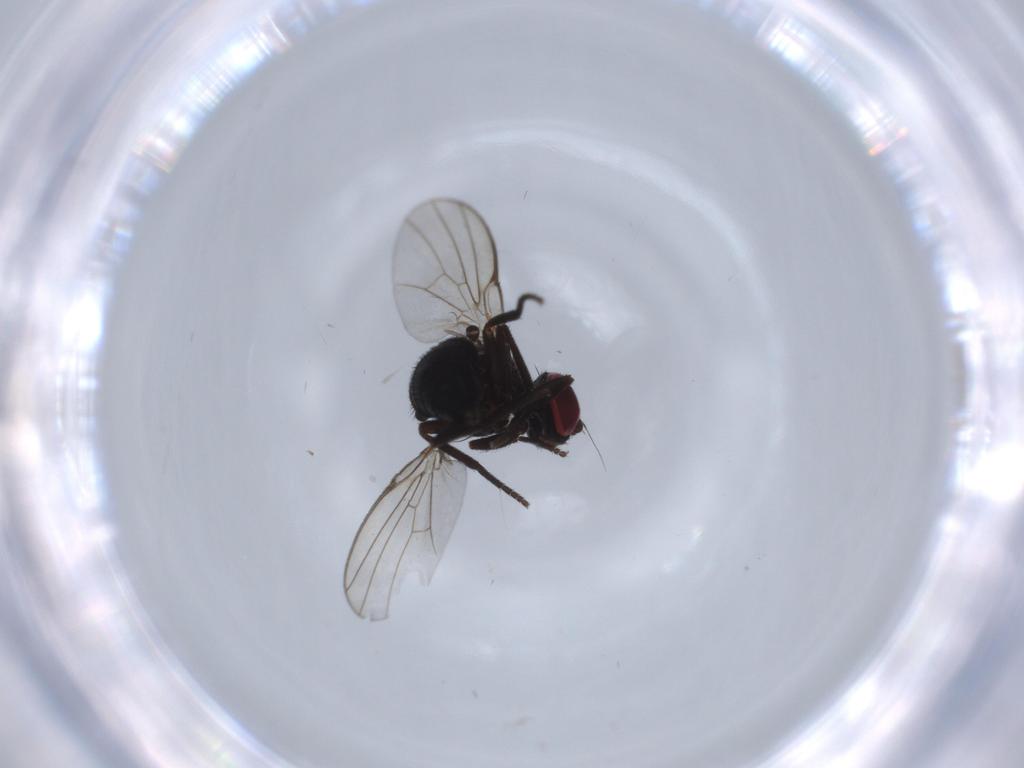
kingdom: Animalia
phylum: Arthropoda
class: Insecta
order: Diptera
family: Agromyzidae
